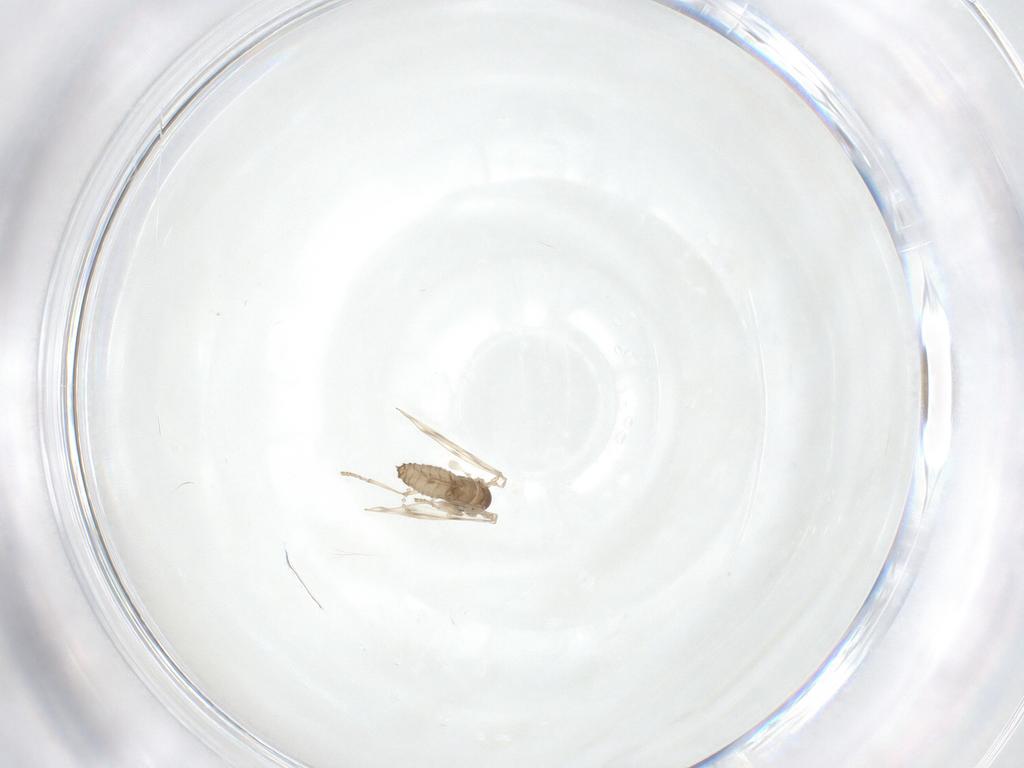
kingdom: Animalia
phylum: Arthropoda
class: Insecta
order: Diptera
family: Psychodidae
